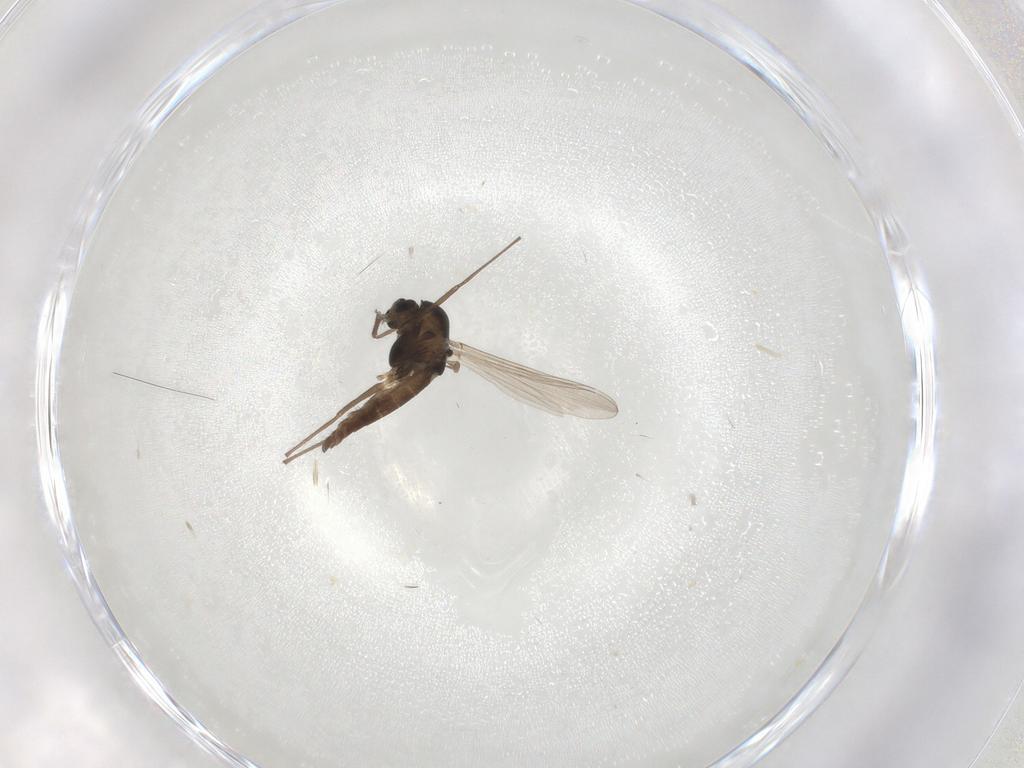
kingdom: Animalia
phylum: Arthropoda
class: Insecta
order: Diptera
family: Chironomidae
